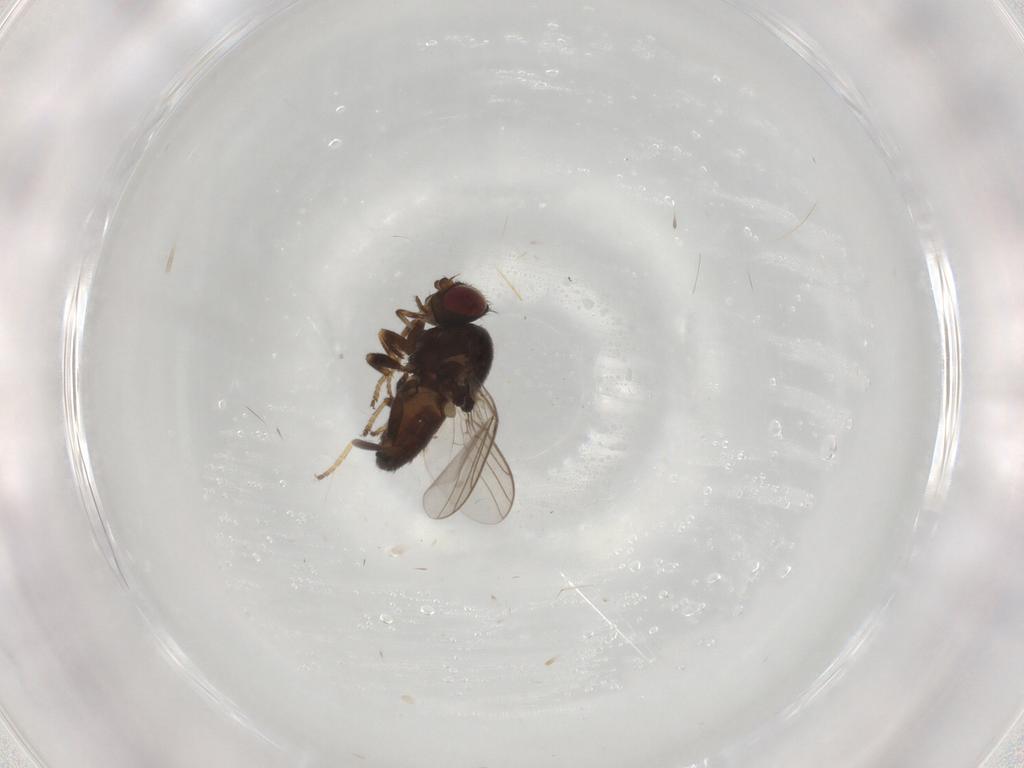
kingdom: Animalia
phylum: Arthropoda
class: Insecta
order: Diptera
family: Chloropidae
